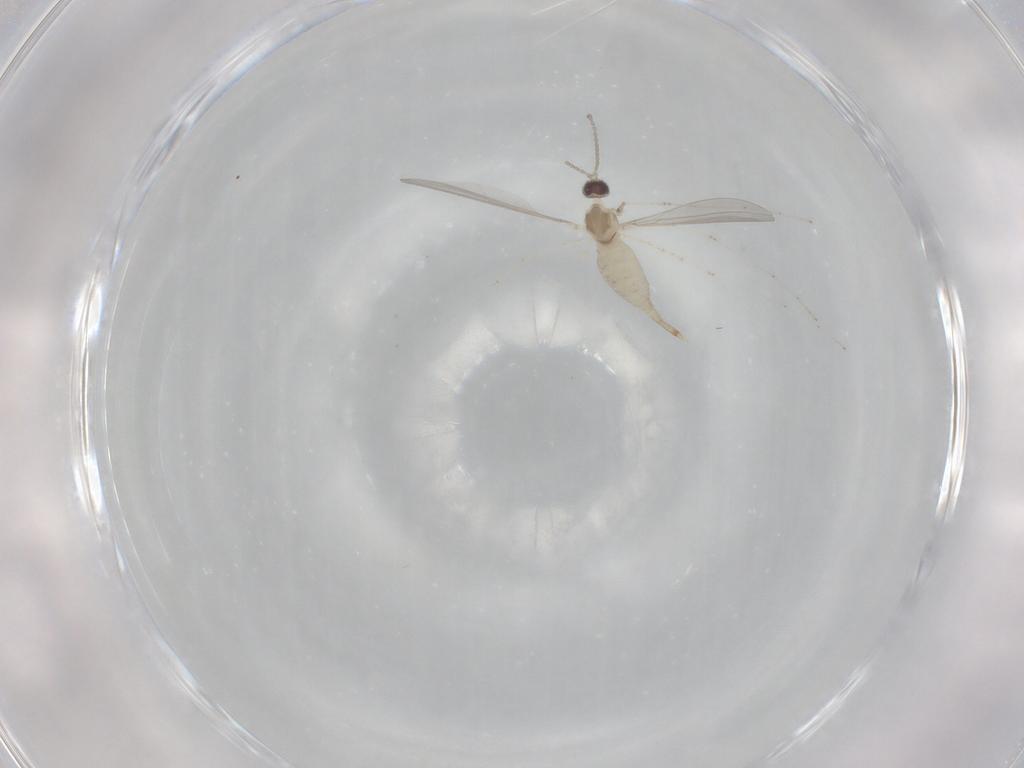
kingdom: Animalia
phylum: Arthropoda
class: Insecta
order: Diptera
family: Cecidomyiidae
